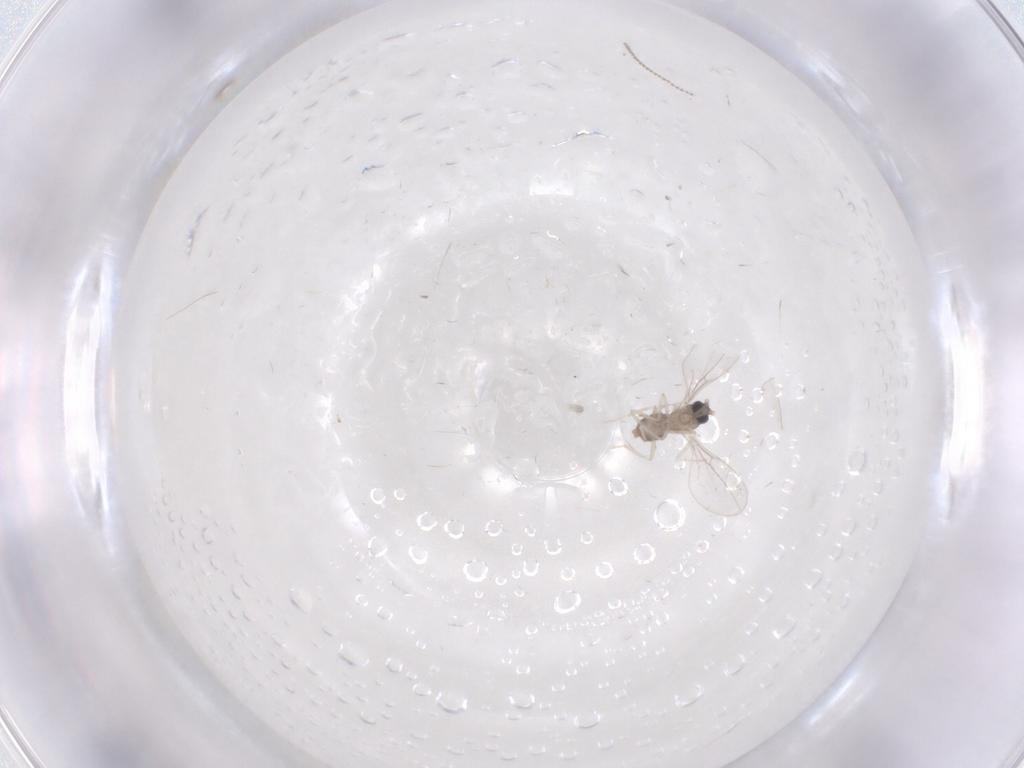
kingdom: Animalia
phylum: Arthropoda
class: Insecta
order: Diptera
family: Cecidomyiidae
